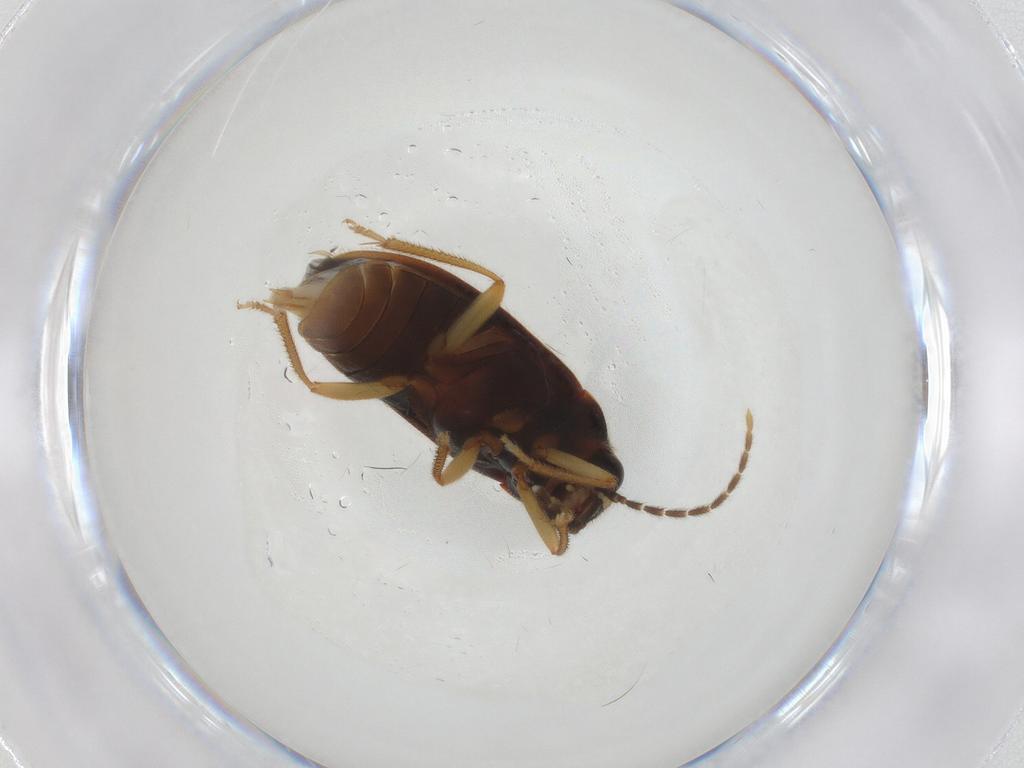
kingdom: Animalia
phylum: Arthropoda
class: Insecta
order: Coleoptera
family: Ptilodactylidae
